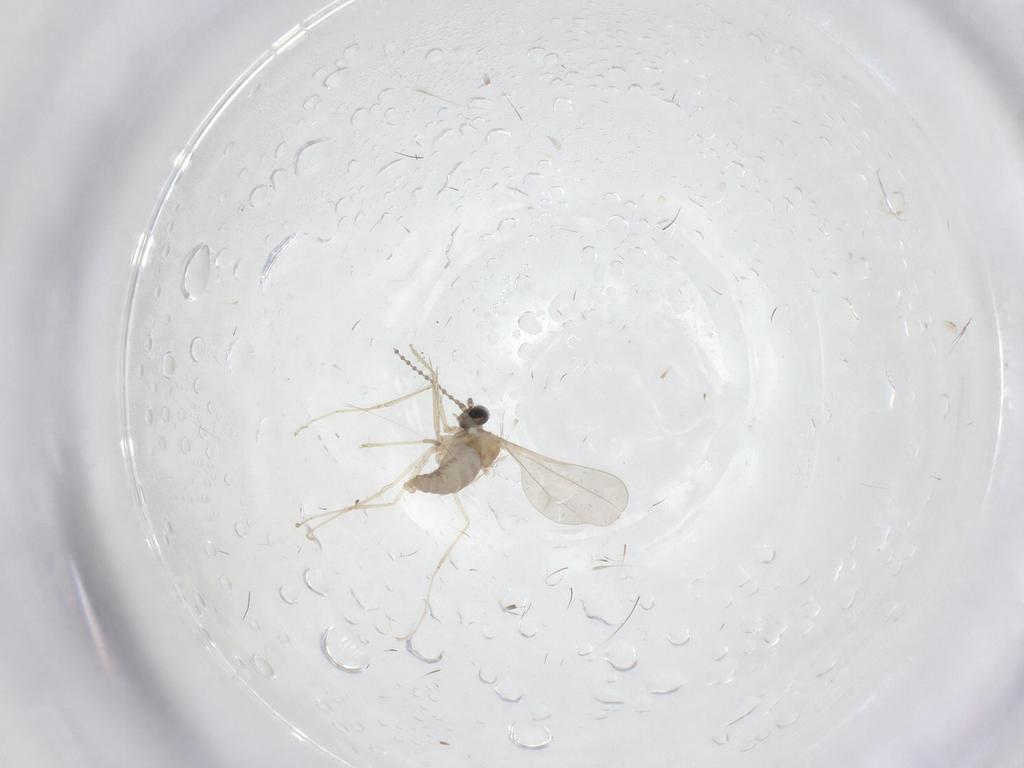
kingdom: Animalia
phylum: Arthropoda
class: Insecta
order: Diptera
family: Cecidomyiidae
